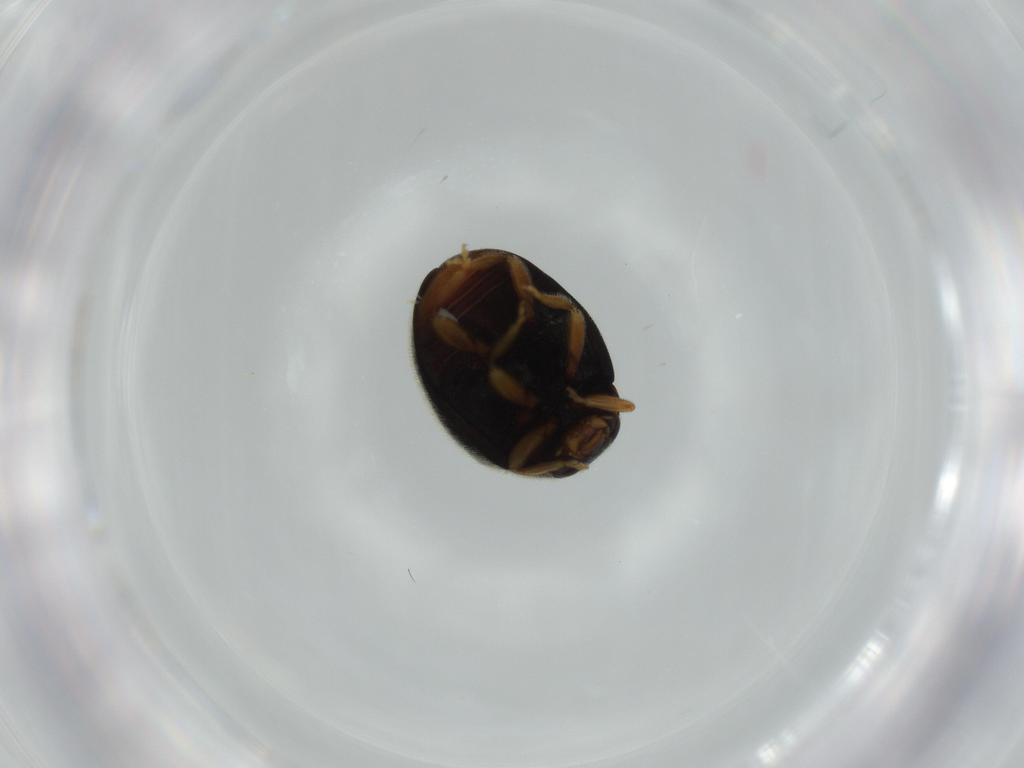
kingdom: Animalia
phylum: Arthropoda
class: Insecta
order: Coleoptera
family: Coccinellidae
